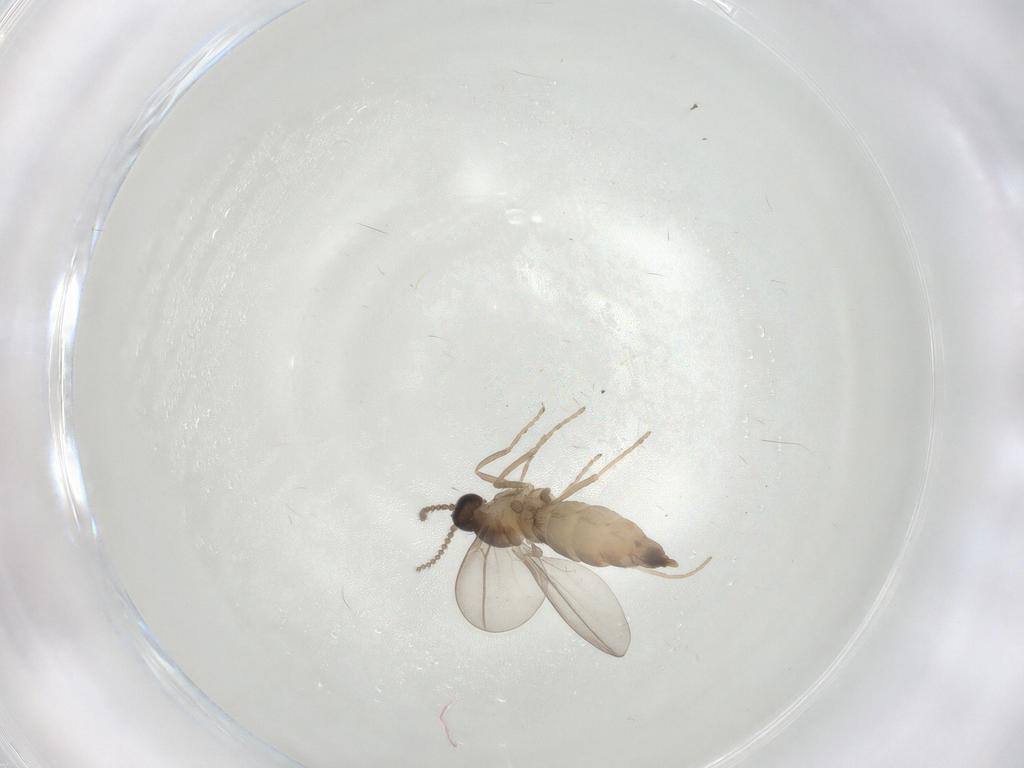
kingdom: Animalia
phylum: Arthropoda
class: Insecta
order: Diptera
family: Cecidomyiidae
